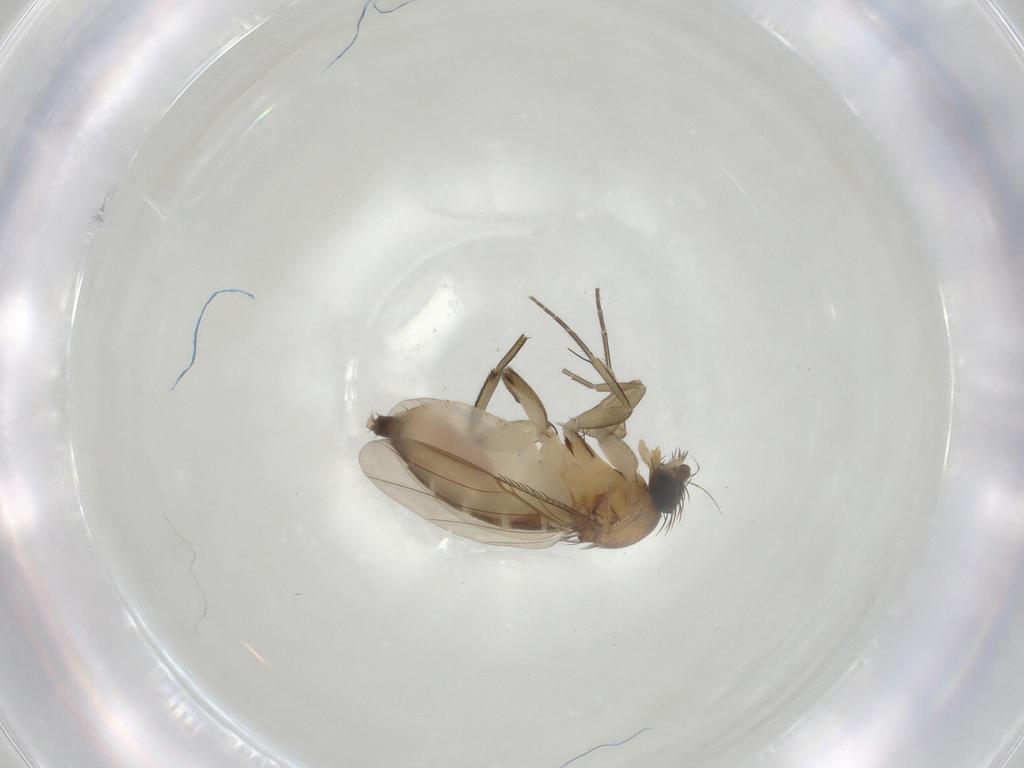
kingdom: Animalia
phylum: Arthropoda
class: Insecta
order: Diptera
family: Phoridae
